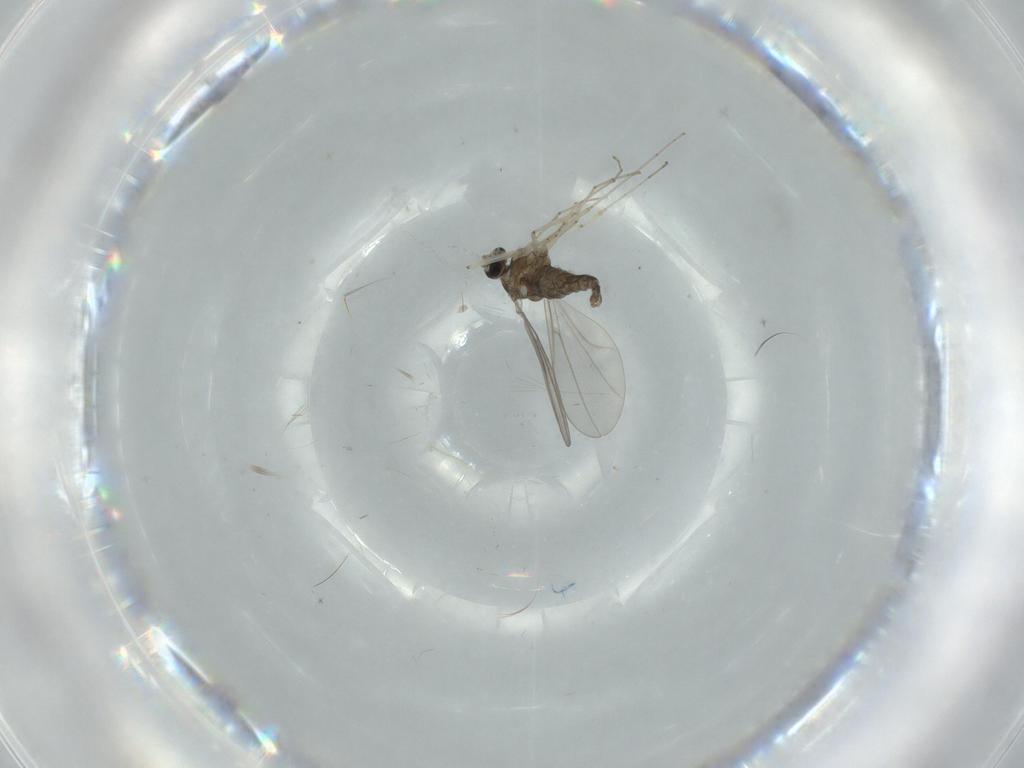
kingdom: Animalia
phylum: Arthropoda
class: Insecta
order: Diptera
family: Cecidomyiidae
